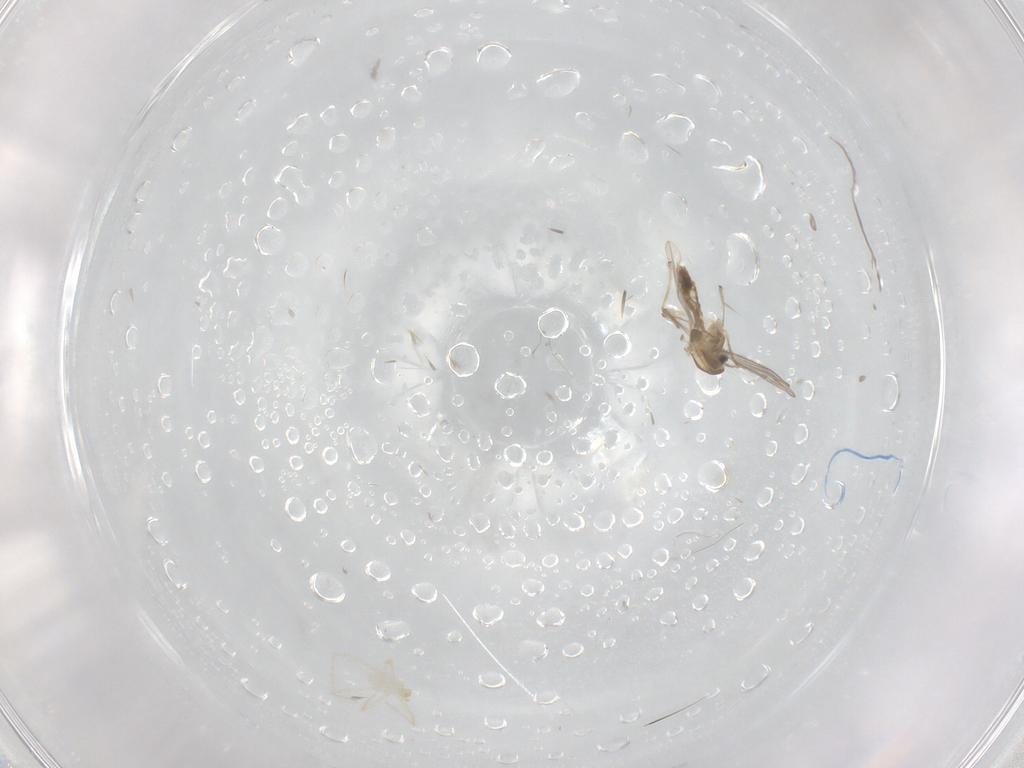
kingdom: Animalia
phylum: Arthropoda
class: Insecta
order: Diptera
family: Chironomidae
